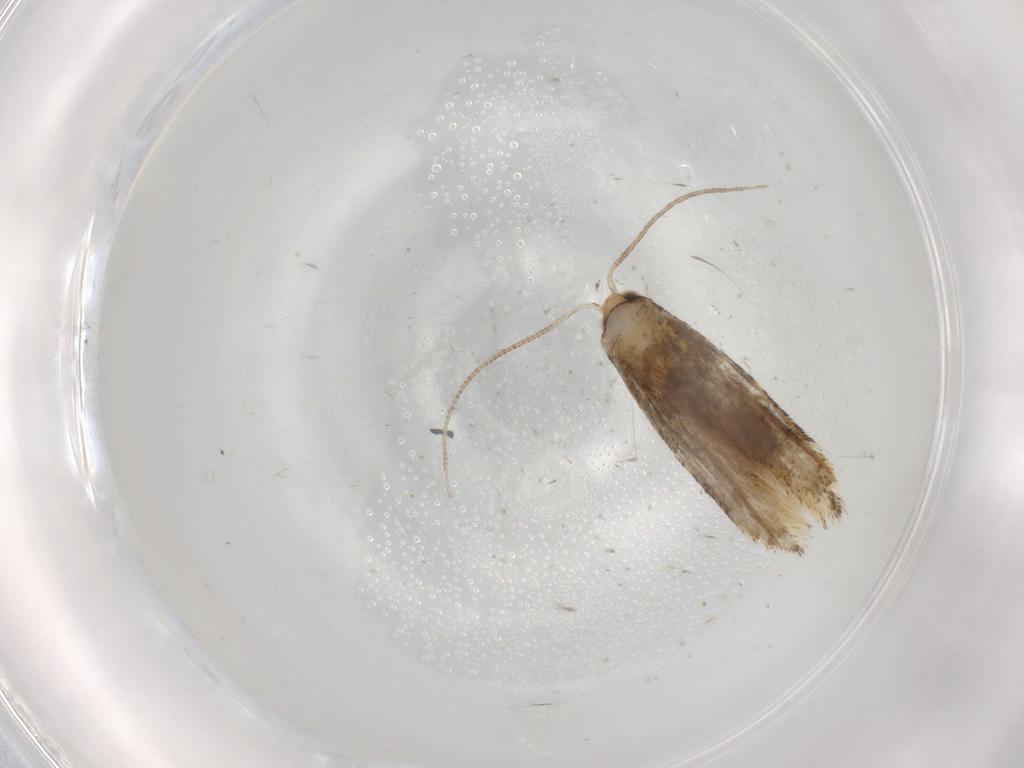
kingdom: Animalia
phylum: Arthropoda
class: Insecta
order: Lepidoptera
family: Tineidae
